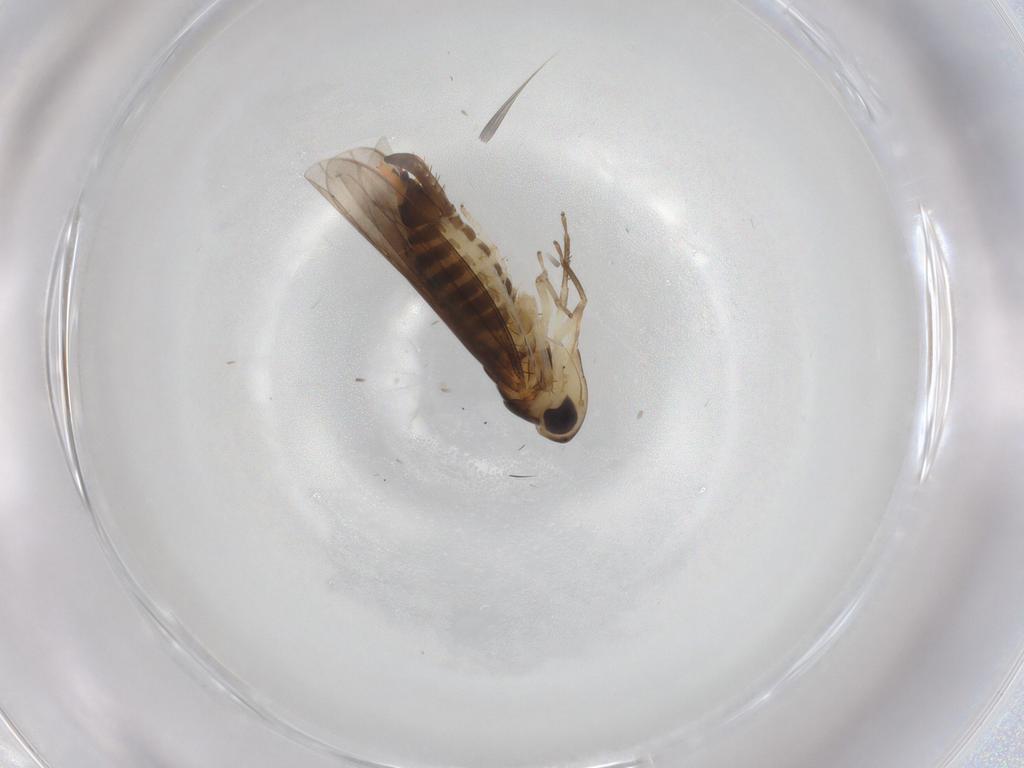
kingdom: Animalia
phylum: Arthropoda
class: Insecta
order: Hemiptera
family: Cicadellidae
